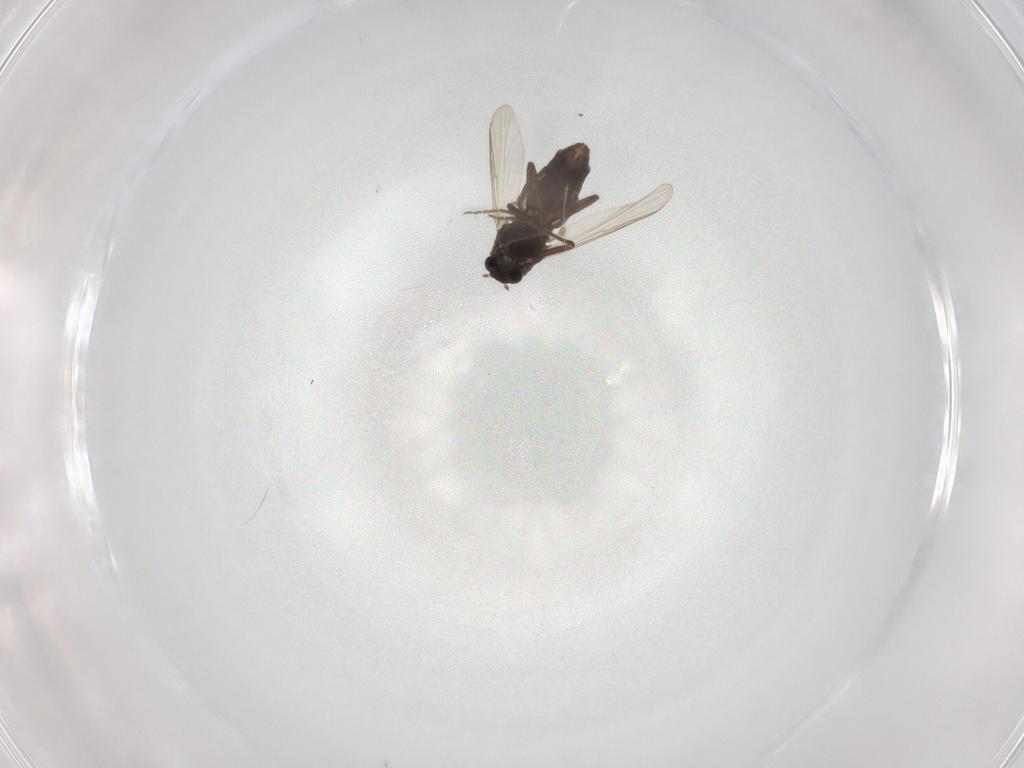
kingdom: Animalia
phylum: Arthropoda
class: Insecta
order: Diptera
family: Chironomidae
